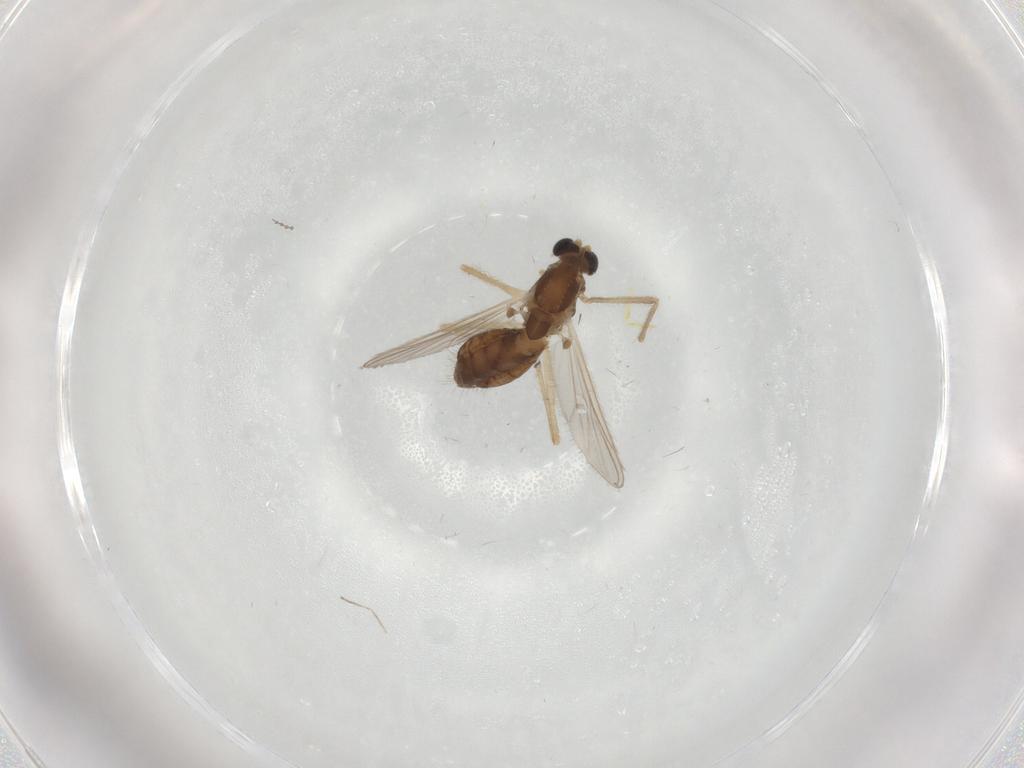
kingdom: Animalia
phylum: Arthropoda
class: Insecta
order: Diptera
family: Chironomidae
